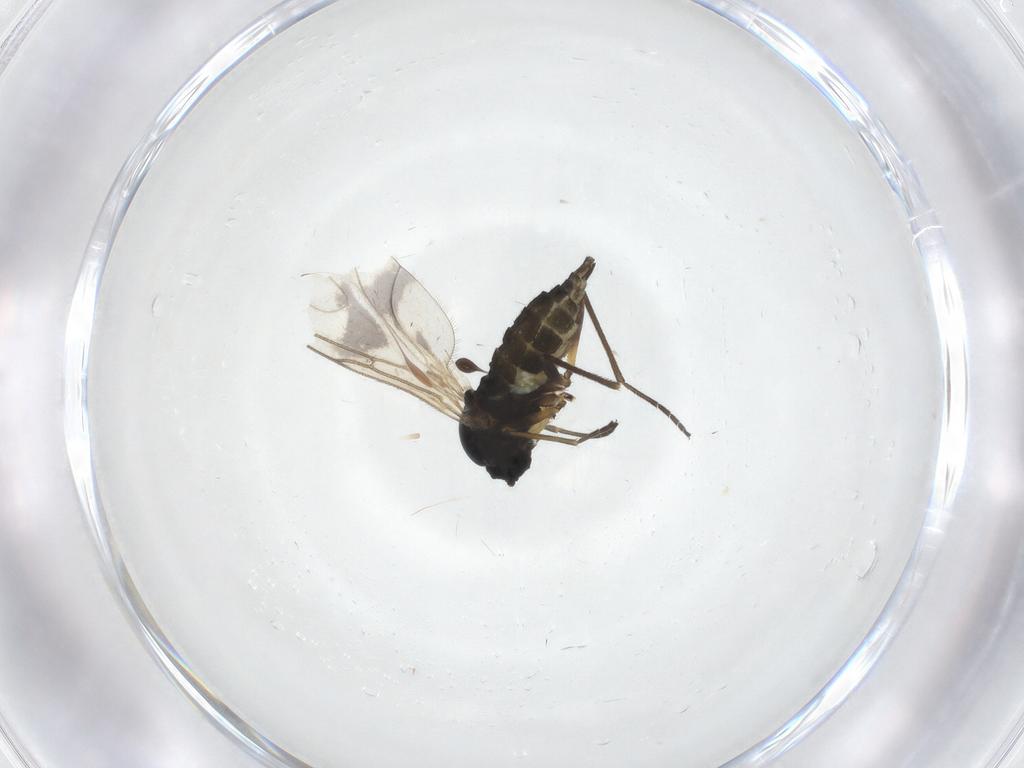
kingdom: Animalia
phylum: Arthropoda
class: Insecta
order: Diptera
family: Sciaridae
